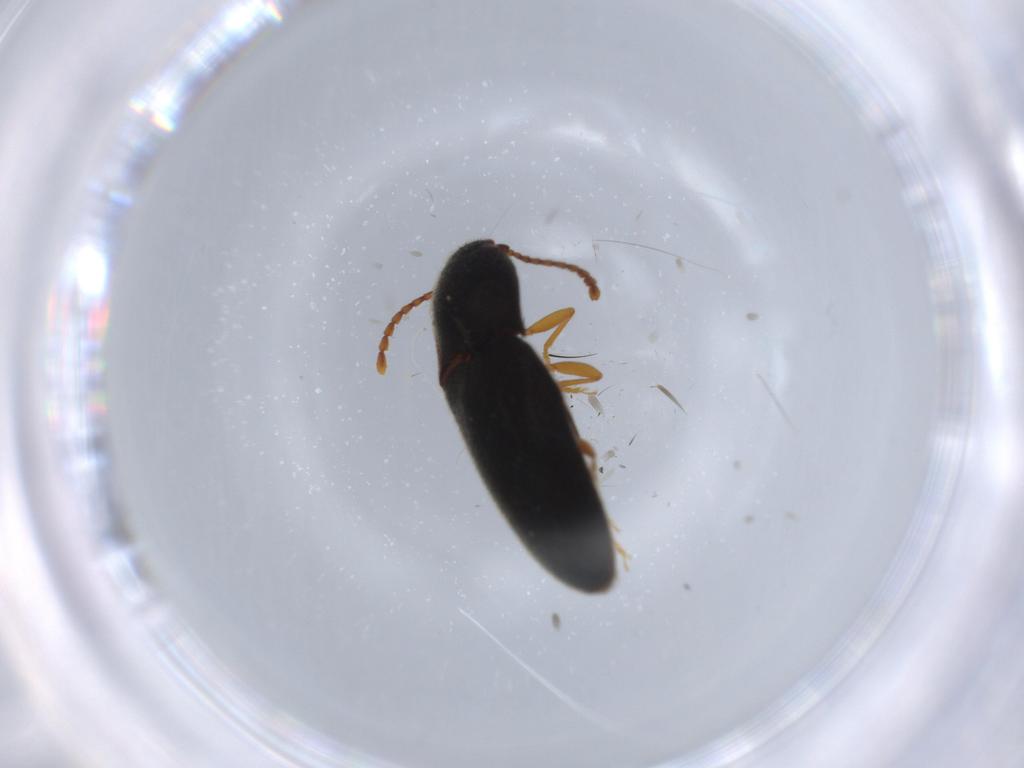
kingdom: Animalia
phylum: Arthropoda
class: Insecta
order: Coleoptera
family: Elateridae
